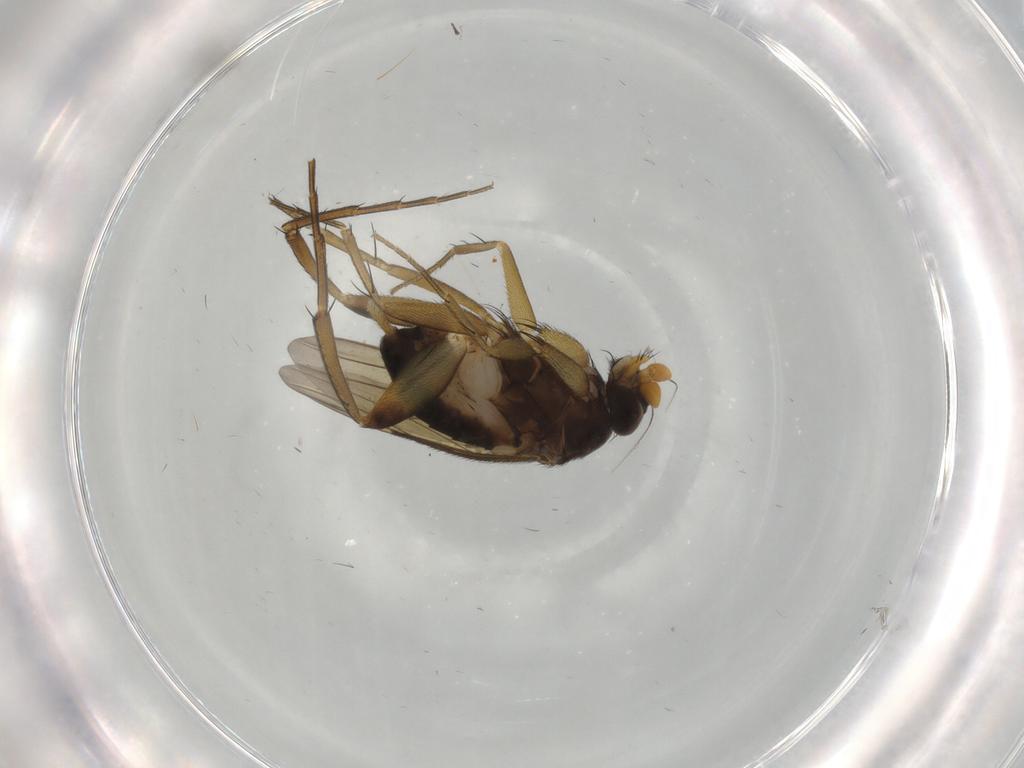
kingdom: Animalia
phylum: Arthropoda
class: Insecta
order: Diptera
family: Phoridae
